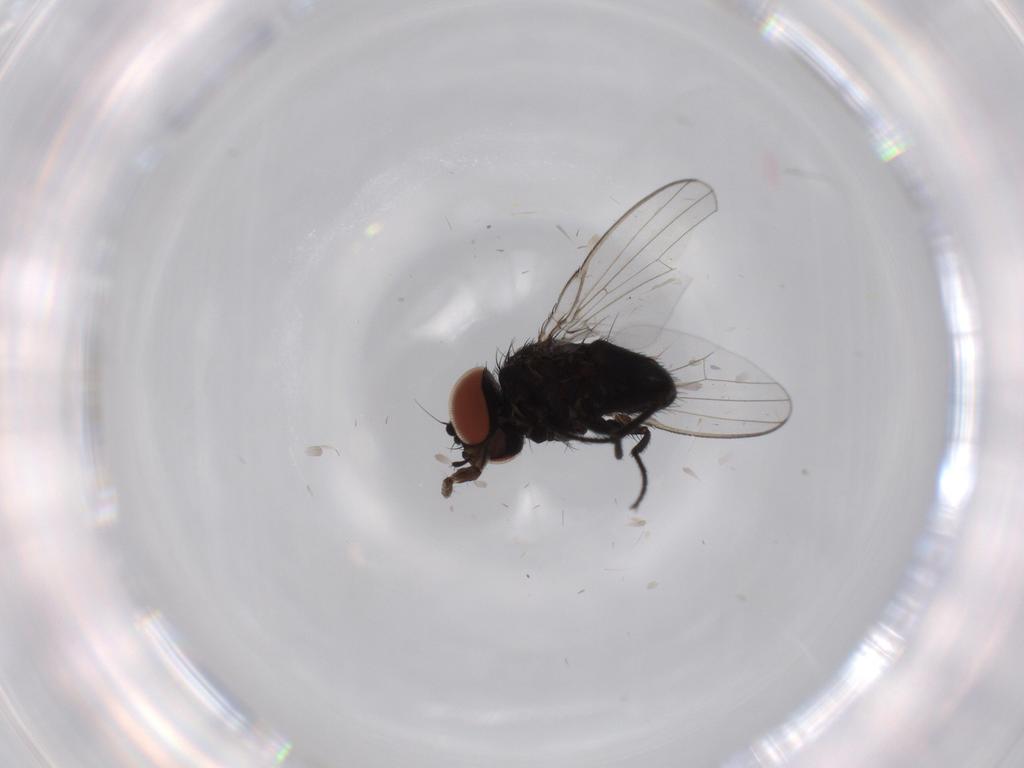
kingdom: Animalia
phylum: Arthropoda
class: Insecta
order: Diptera
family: Milichiidae
